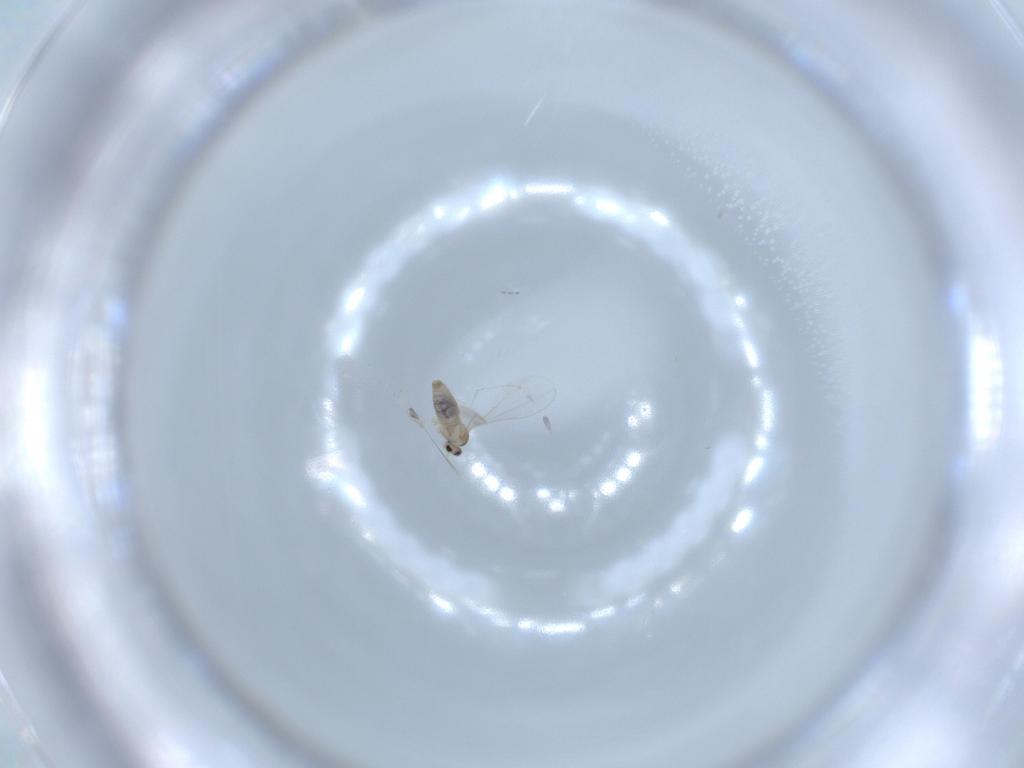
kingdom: Animalia
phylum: Arthropoda
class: Insecta
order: Diptera
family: Cecidomyiidae
